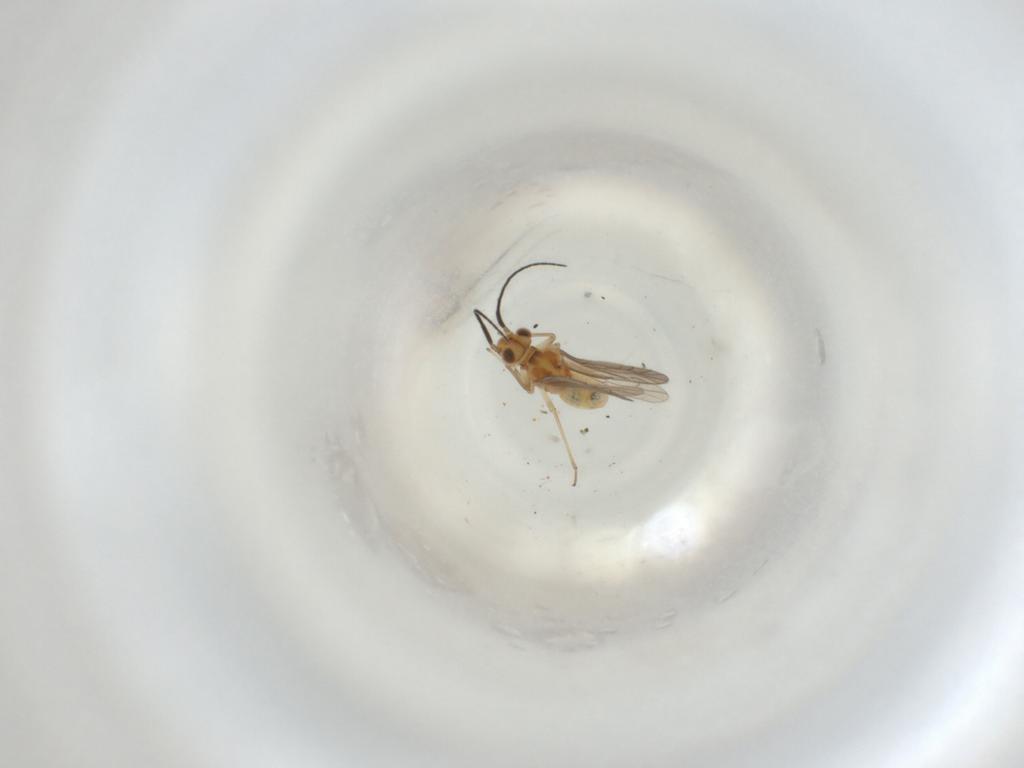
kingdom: Animalia
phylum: Arthropoda
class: Insecta
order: Psocodea
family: Caeciliusidae
